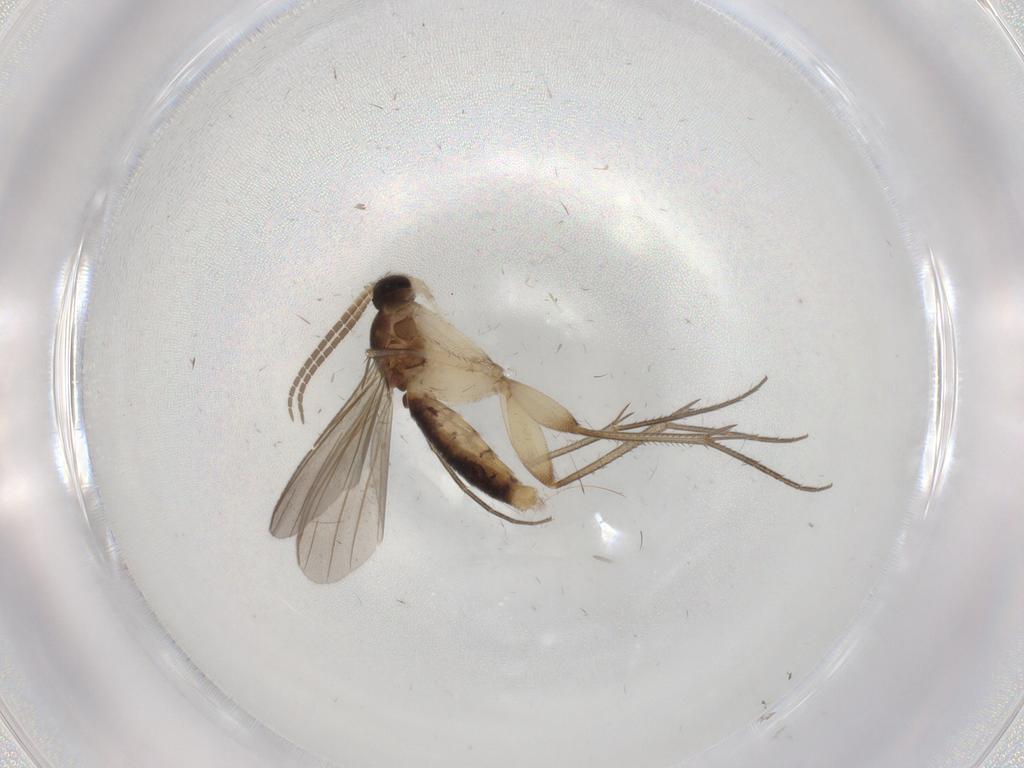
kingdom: Animalia
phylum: Arthropoda
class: Insecta
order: Diptera
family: Mycetophilidae
